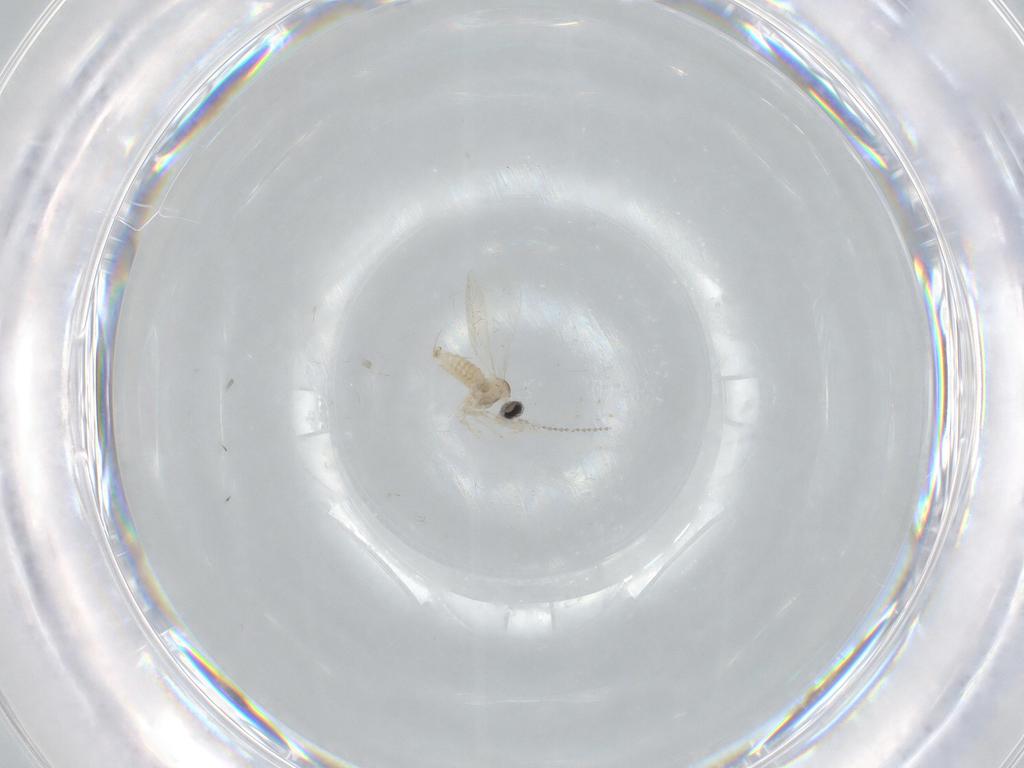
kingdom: Animalia
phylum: Arthropoda
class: Insecta
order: Diptera
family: Chironomidae
